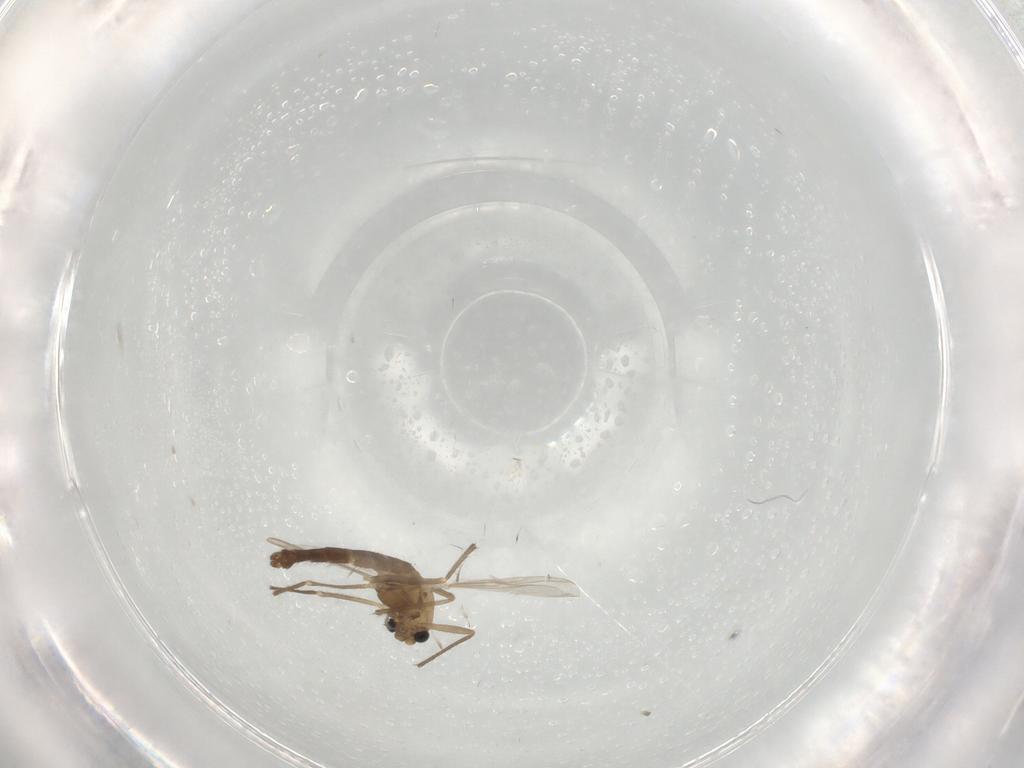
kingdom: Animalia
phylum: Arthropoda
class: Insecta
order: Diptera
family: Chironomidae
